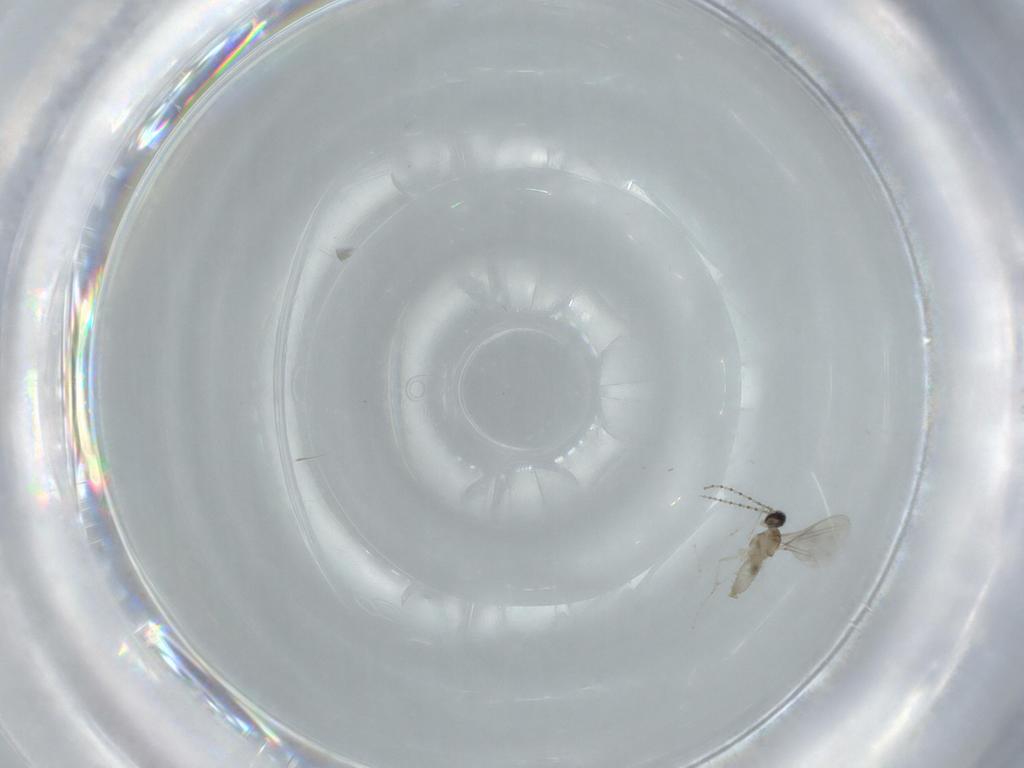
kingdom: Animalia
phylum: Arthropoda
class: Insecta
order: Diptera
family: Cecidomyiidae
